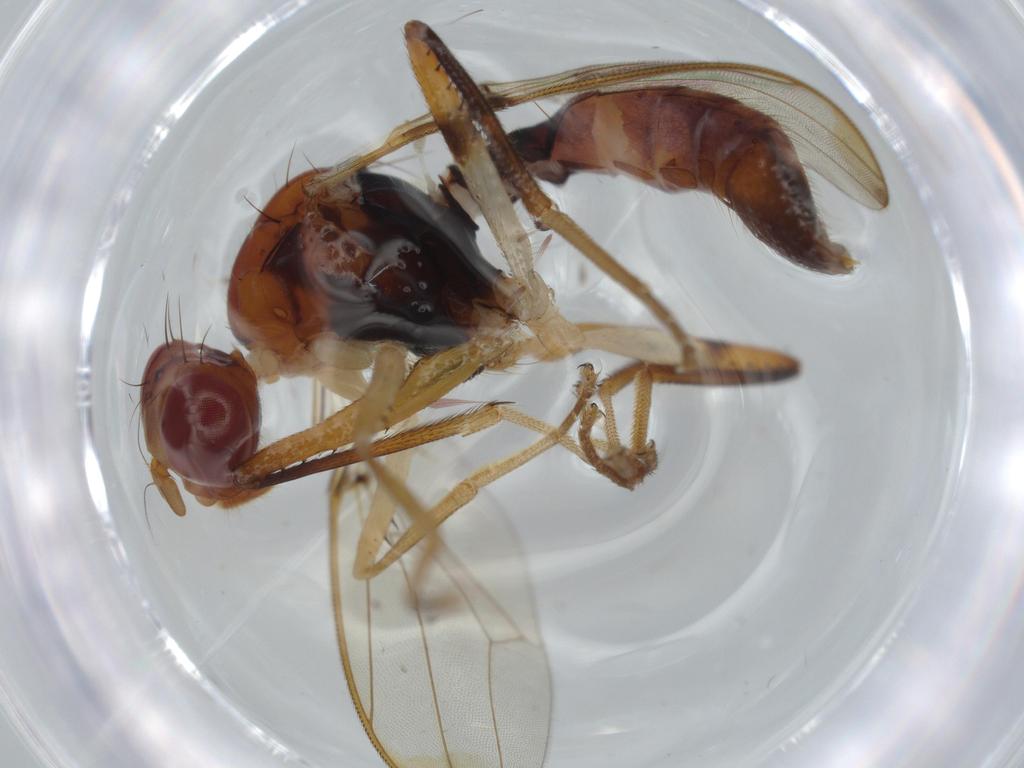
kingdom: Animalia
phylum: Arthropoda
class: Insecta
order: Diptera
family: Richardiidae
